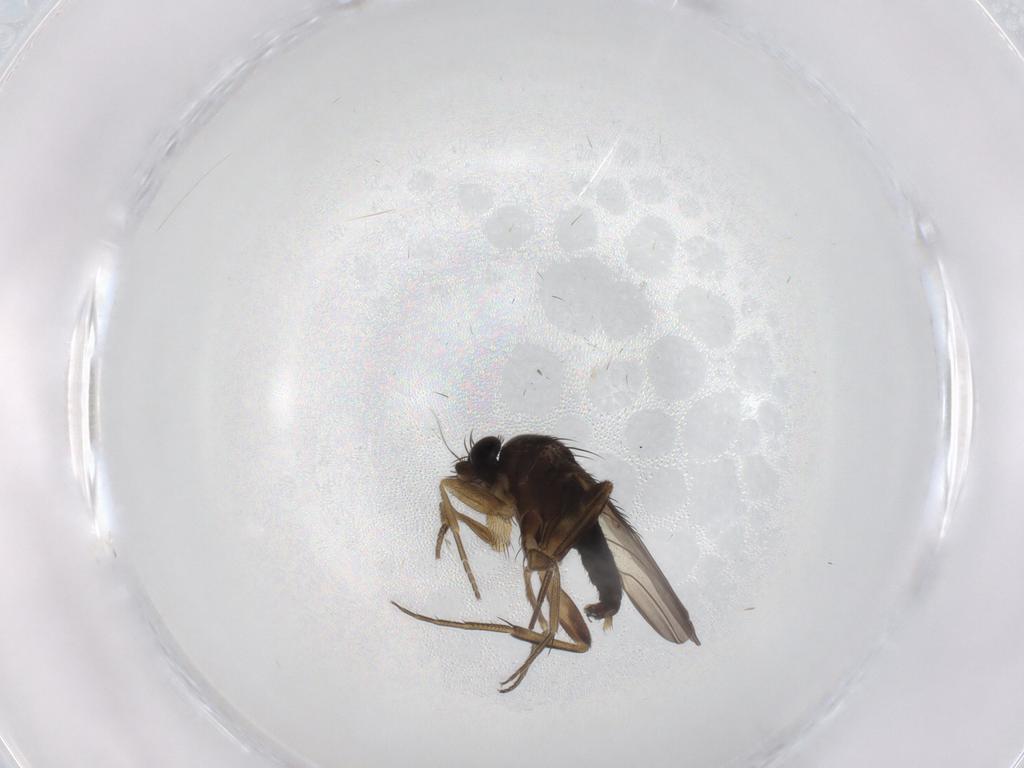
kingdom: Animalia
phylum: Arthropoda
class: Insecta
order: Diptera
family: Phoridae
